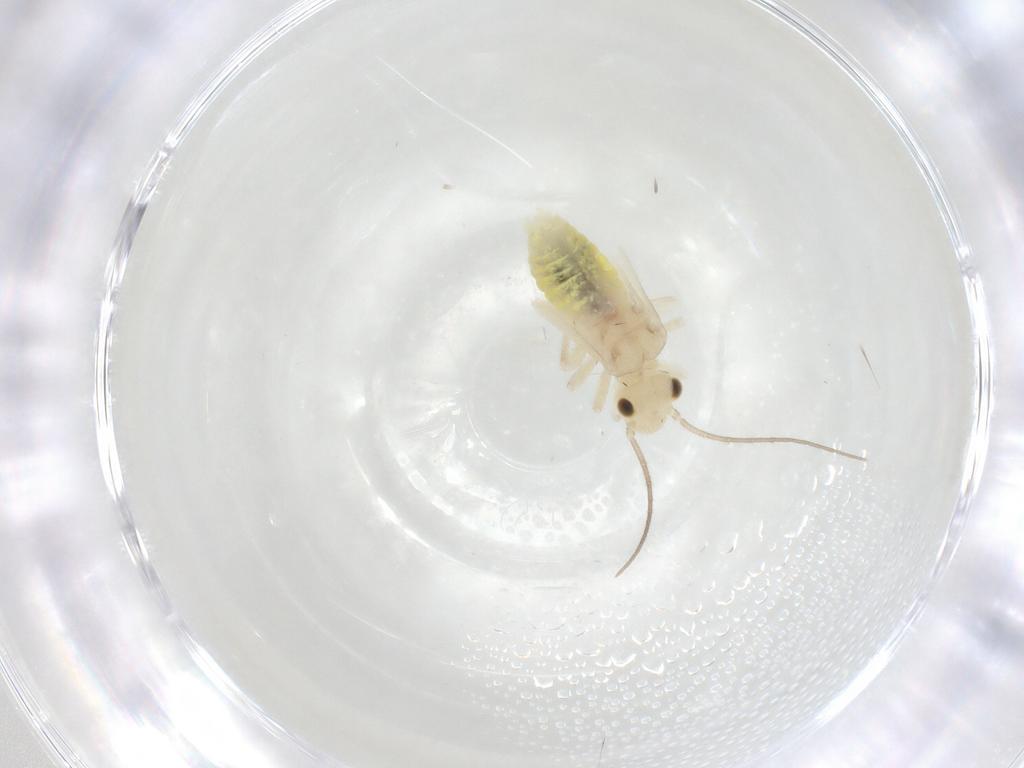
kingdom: Animalia
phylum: Arthropoda
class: Insecta
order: Psocodea
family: Caeciliusidae
